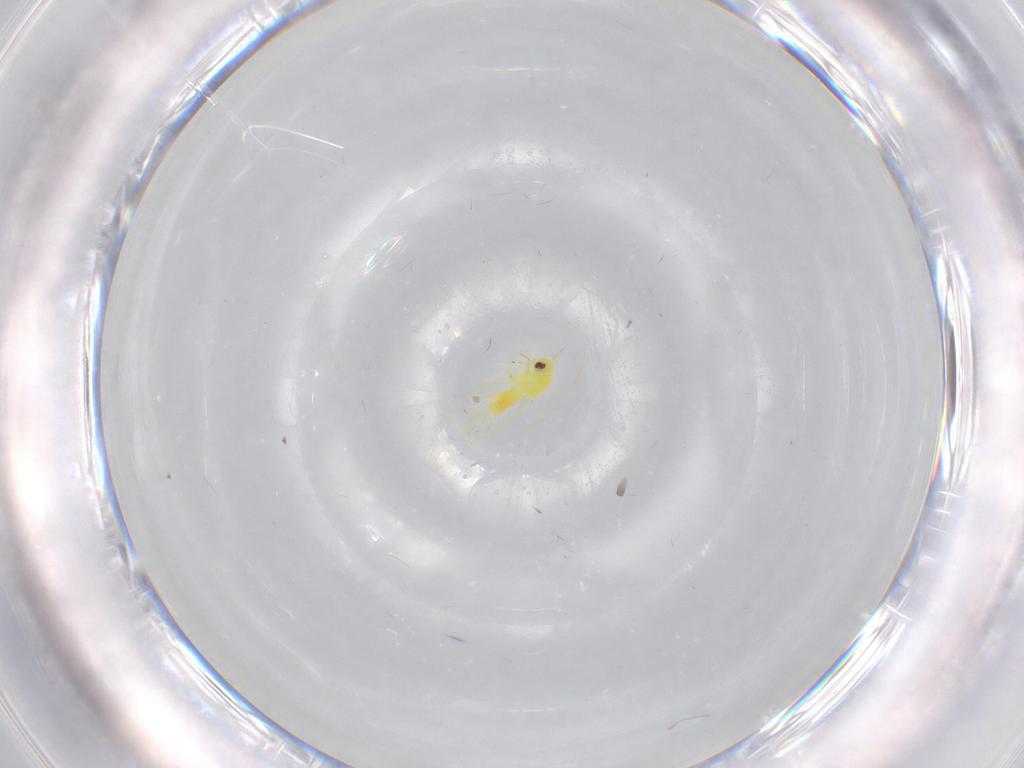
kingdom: Animalia
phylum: Arthropoda
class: Insecta
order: Hemiptera
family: Aleyrodidae
